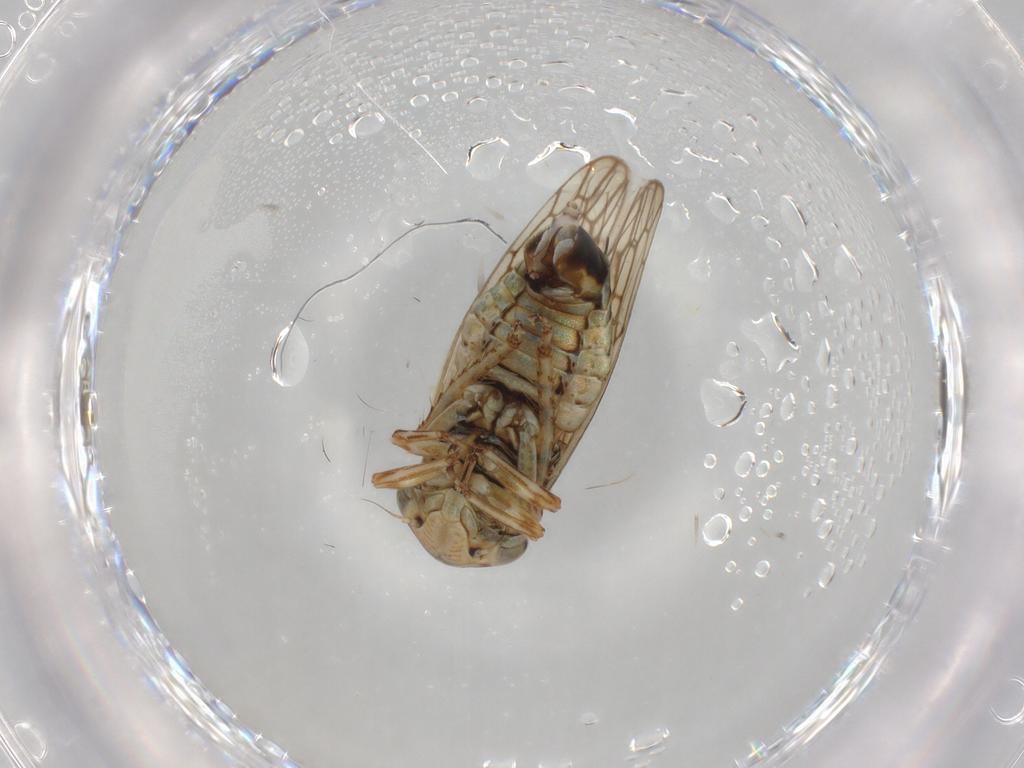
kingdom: Animalia
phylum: Arthropoda
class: Insecta
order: Hemiptera
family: Cicadellidae
